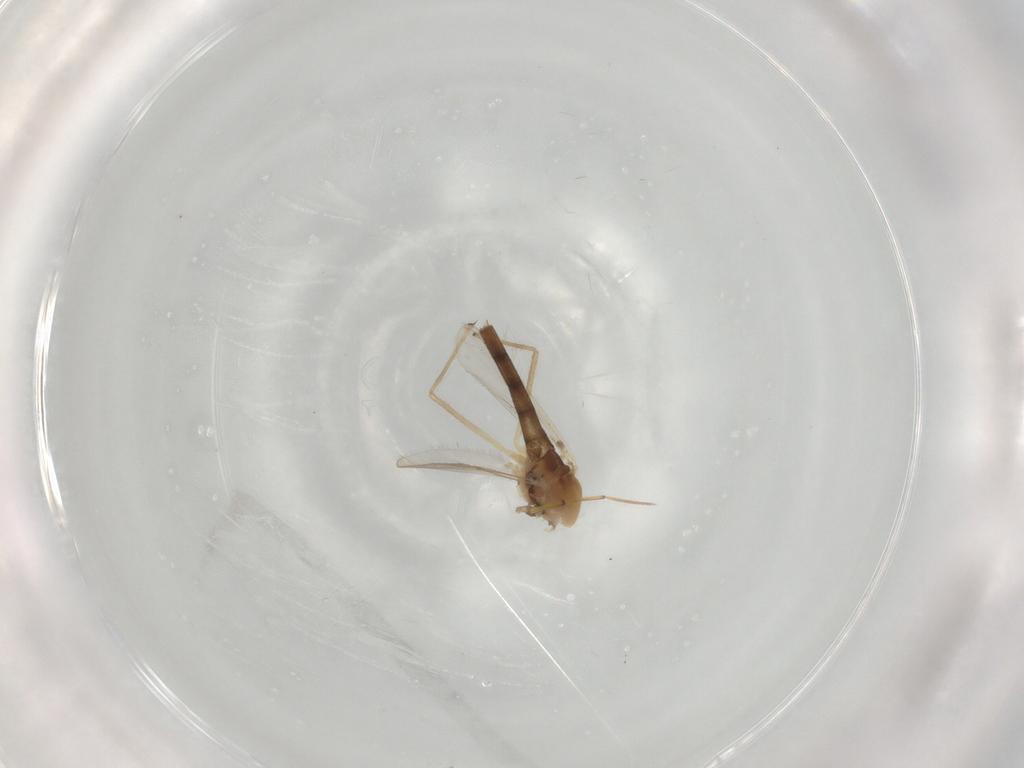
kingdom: Animalia
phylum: Arthropoda
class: Insecta
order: Diptera
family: Chironomidae
